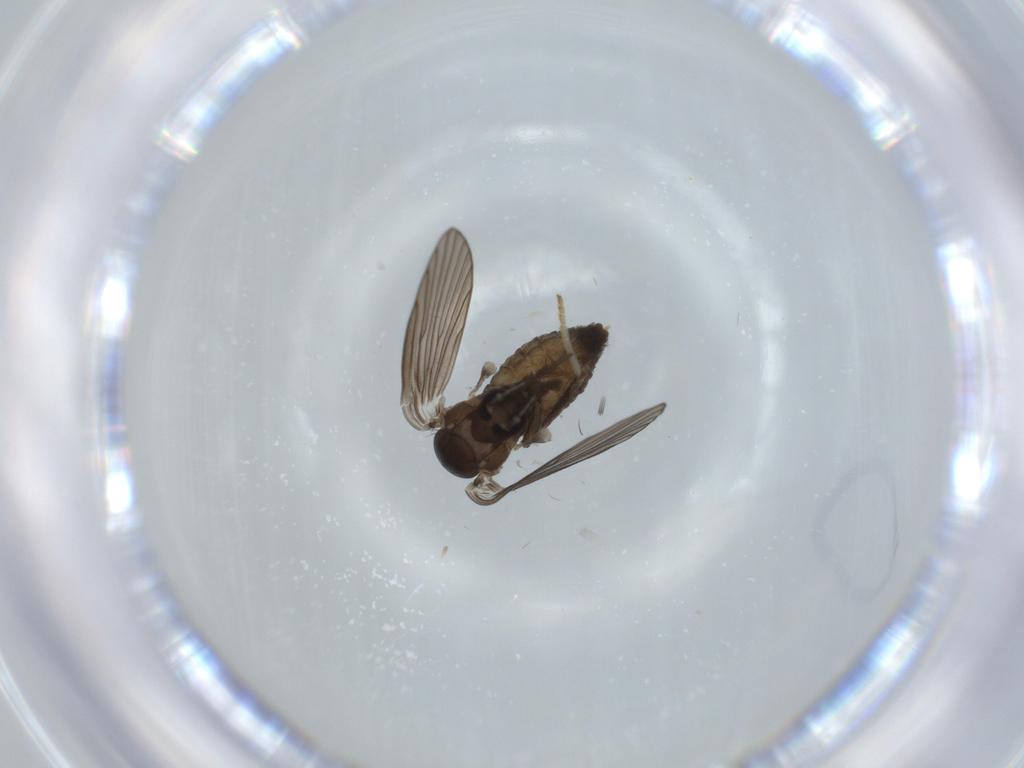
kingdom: Animalia
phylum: Arthropoda
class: Insecta
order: Diptera
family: Psychodidae
